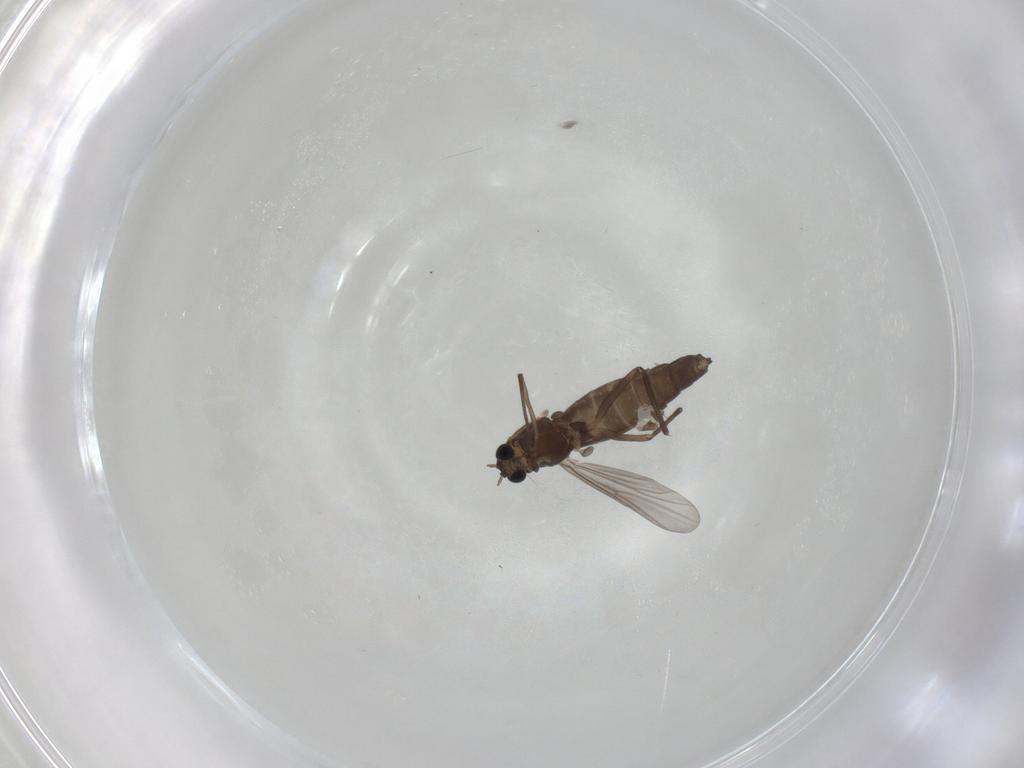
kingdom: Animalia
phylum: Arthropoda
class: Insecta
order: Diptera
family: Chironomidae
